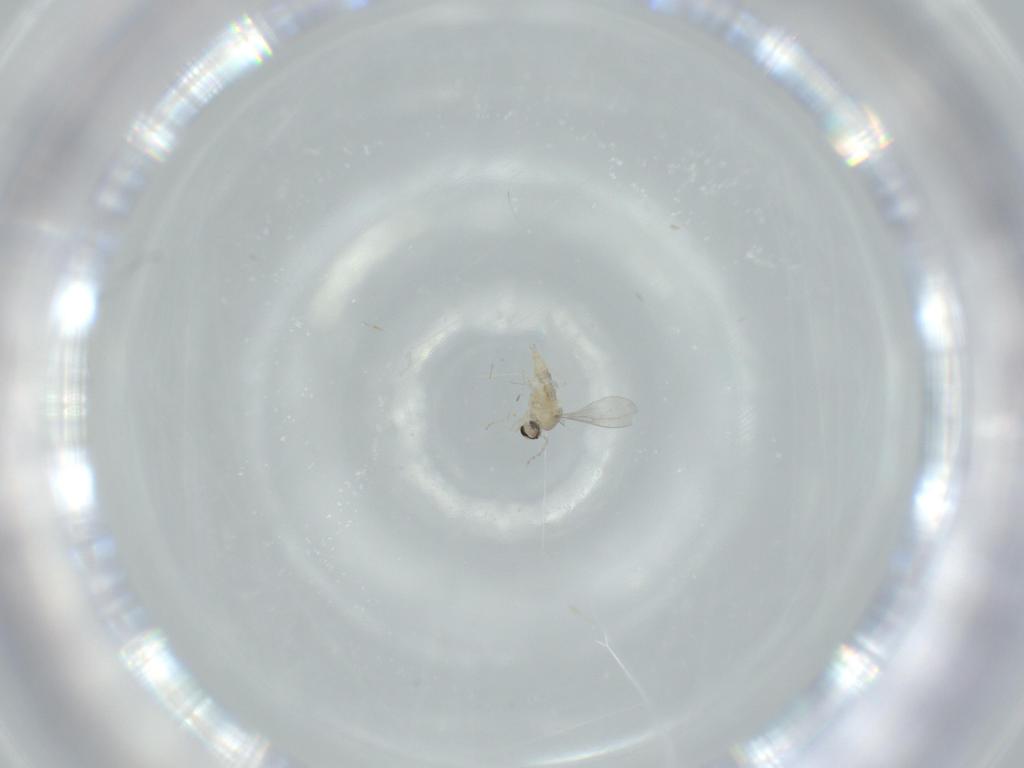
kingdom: Animalia
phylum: Arthropoda
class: Insecta
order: Diptera
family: Cecidomyiidae
